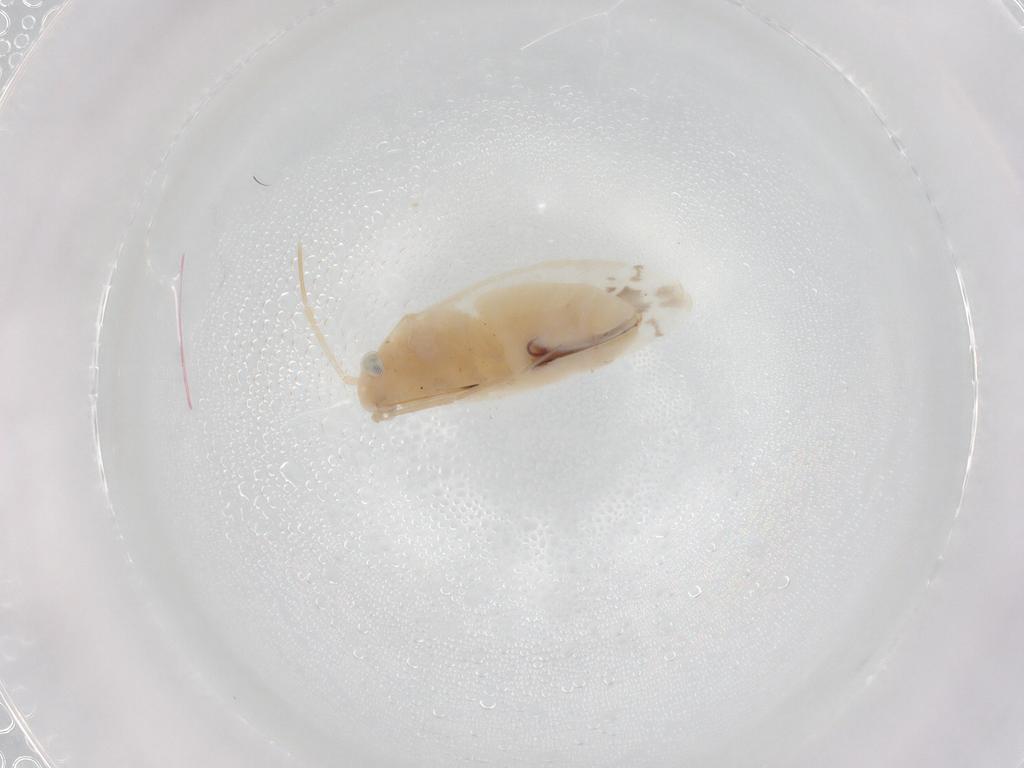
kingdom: Animalia
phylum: Arthropoda
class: Insecta
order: Hemiptera
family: Miridae
